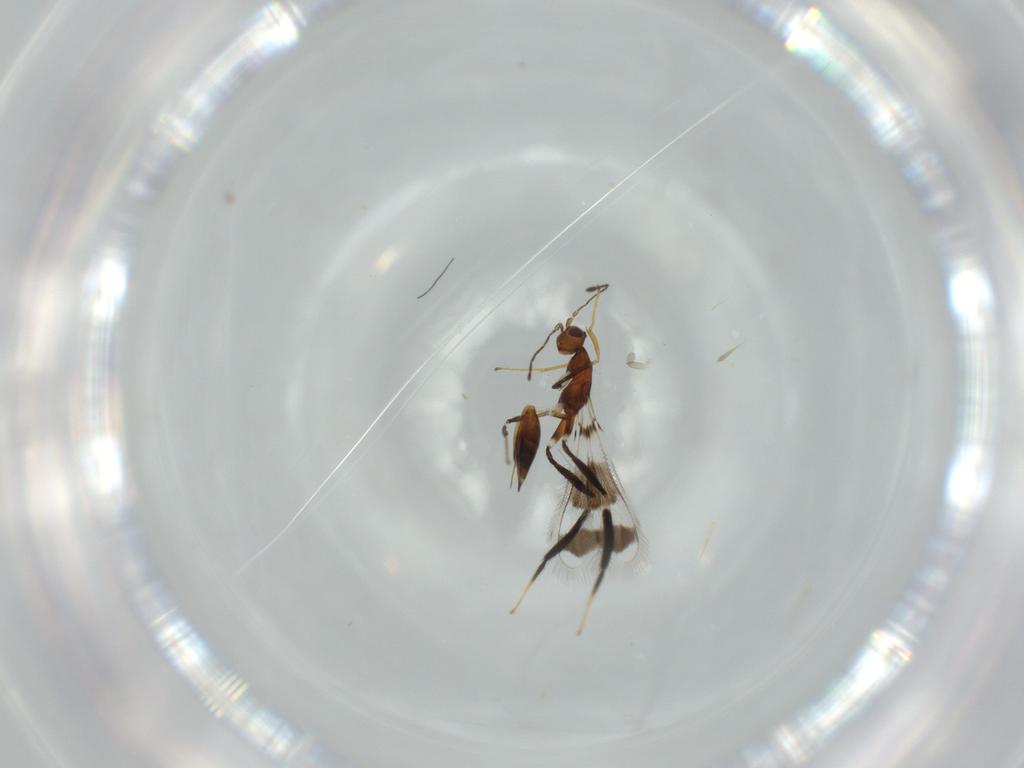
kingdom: Animalia
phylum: Arthropoda
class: Insecta
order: Hymenoptera
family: Mymaridae
